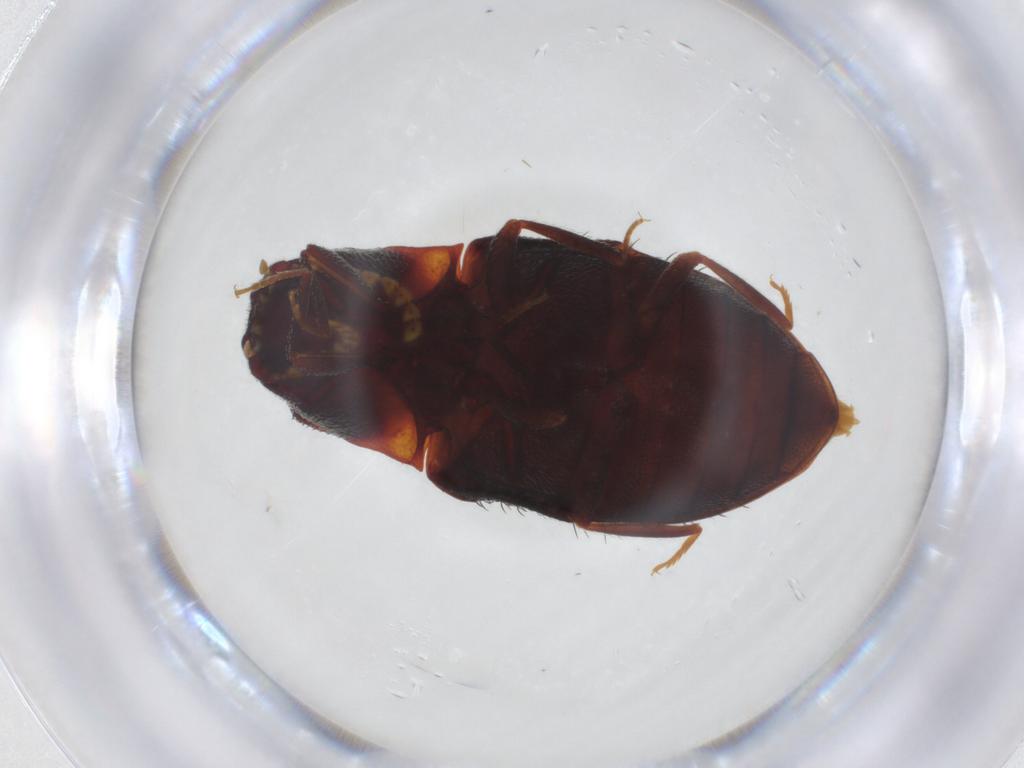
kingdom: Animalia
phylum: Arthropoda
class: Insecta
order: Coleoptera
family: Elateridae
